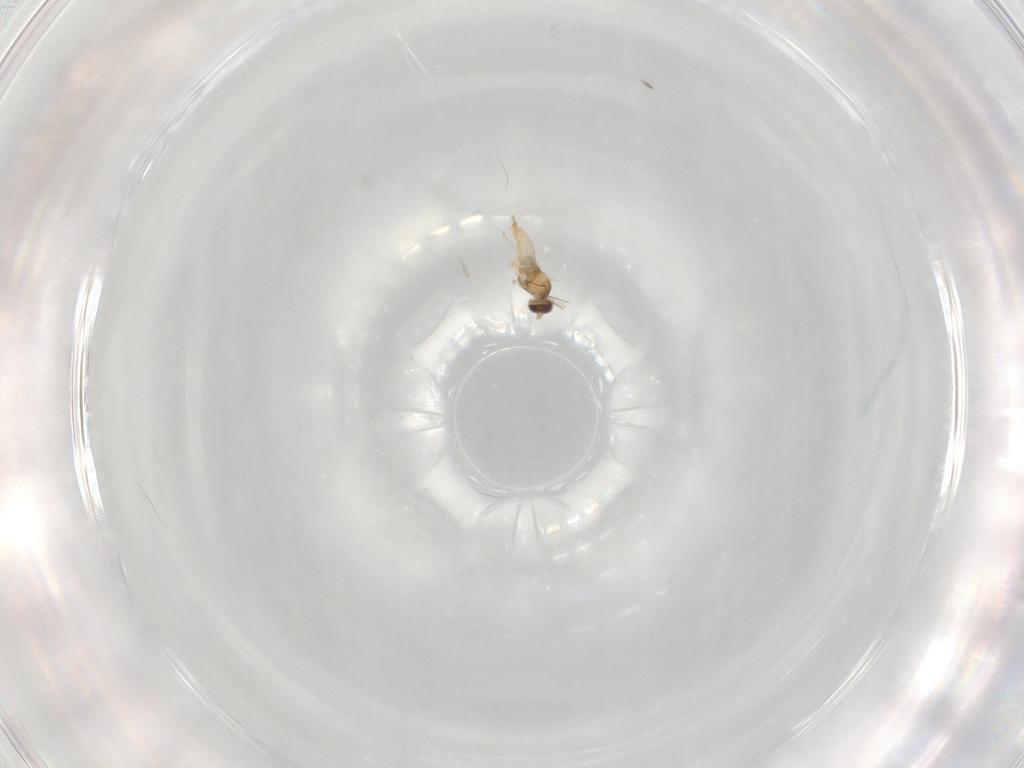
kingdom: Animalia
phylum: Arthropoda
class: Insecta
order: Diptera
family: Cecidomyiidae
